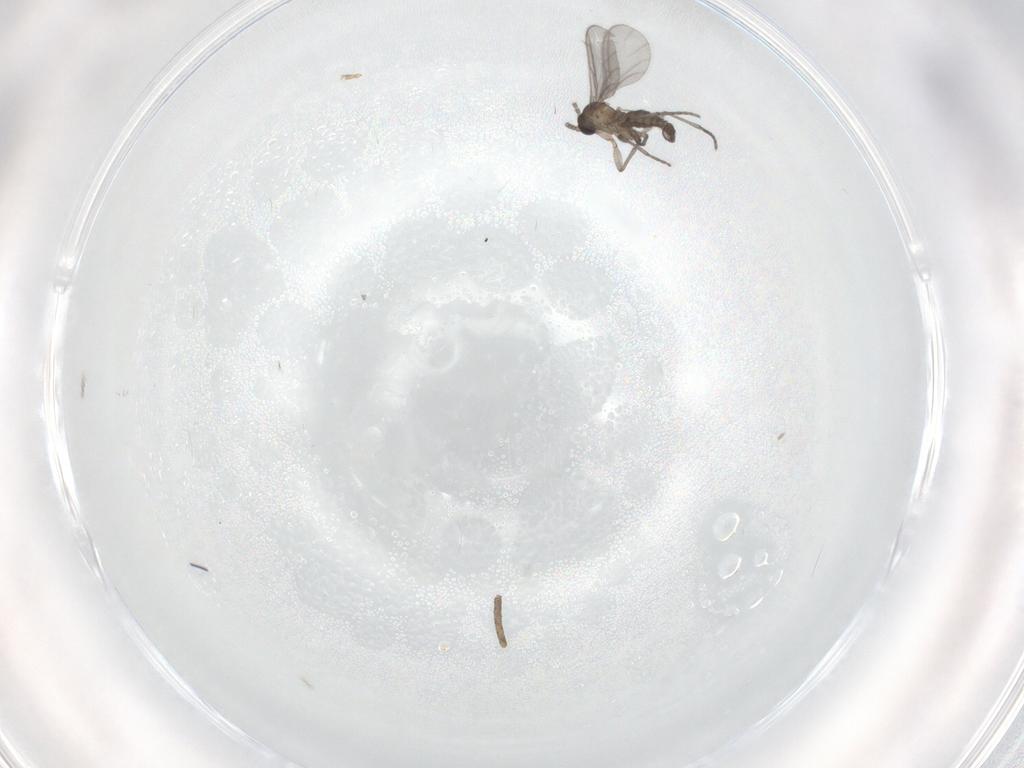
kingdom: Animalia
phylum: Arthropoda
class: Insecta
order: Diptera
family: Sciaridae
